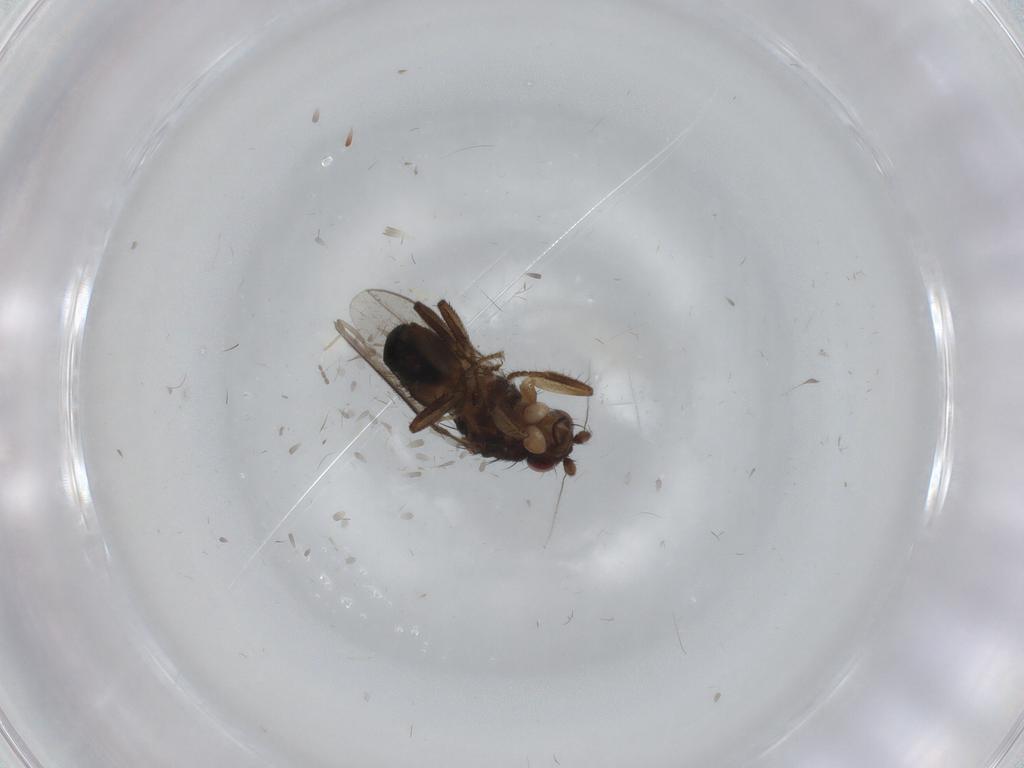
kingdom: Animalia
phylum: Arthropoda
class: Insecta
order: Diptera
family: Sphaeroceridae
